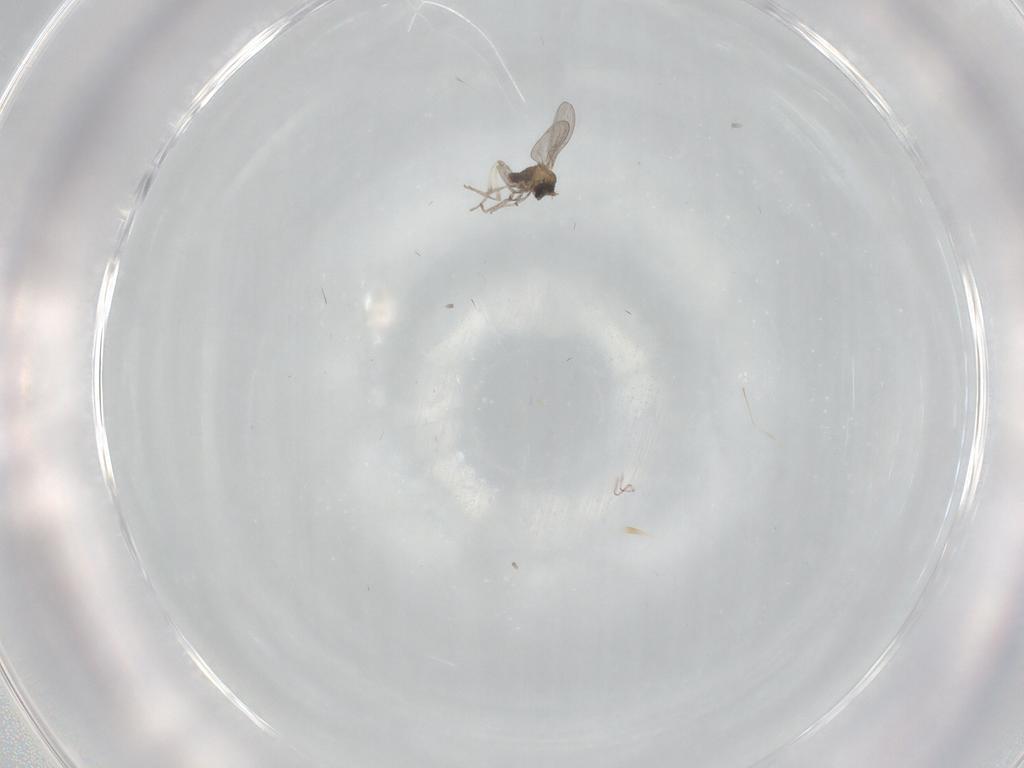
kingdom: Animalia
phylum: Arthropoda
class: Insecta
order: Diptera
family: Cecidomyiidae
